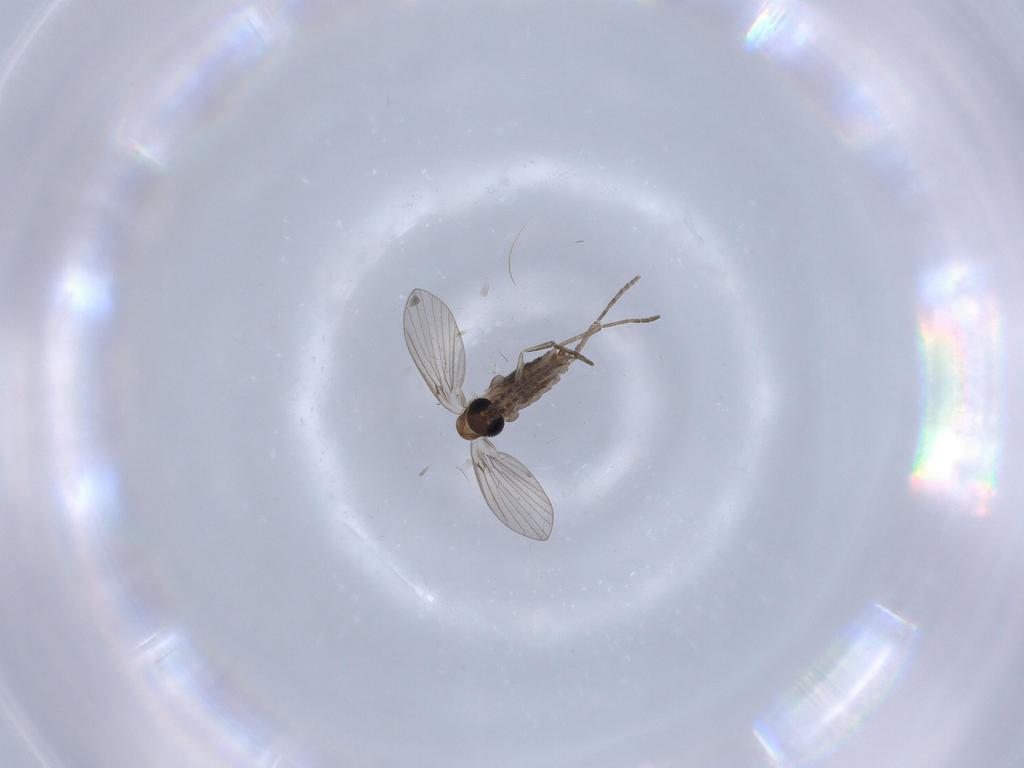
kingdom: Animalia
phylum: Arthropoda
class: Insecta
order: Diptera
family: Psychodidae
